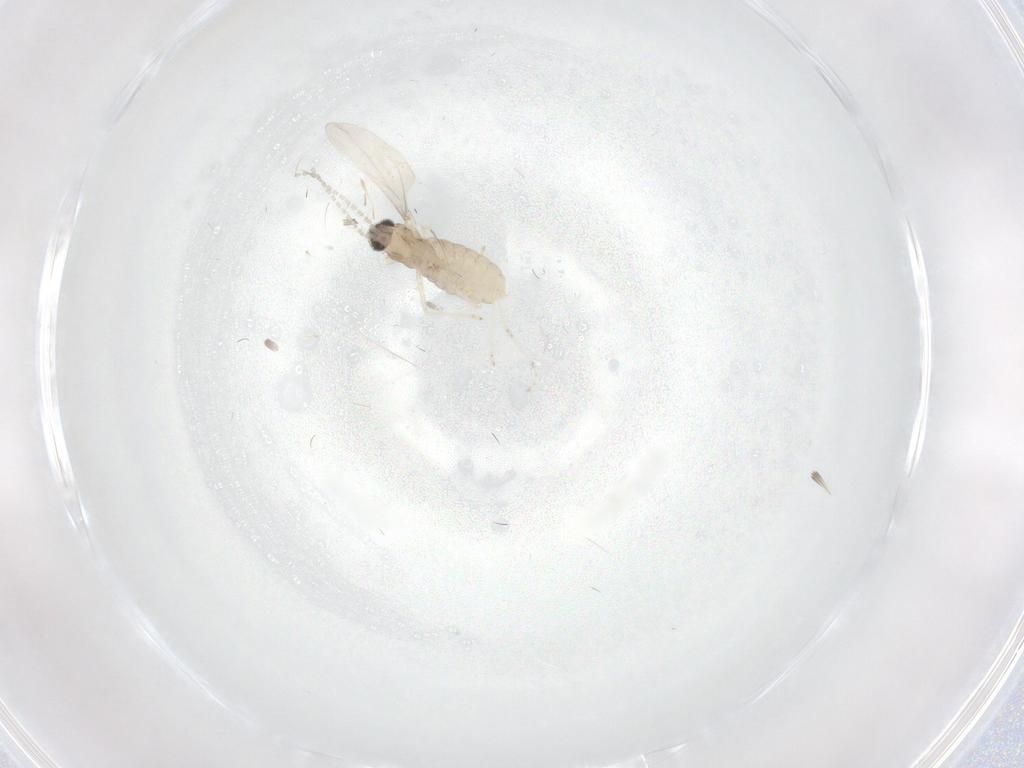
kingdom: Animalia
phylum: Arthropoda
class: Insecta
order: Diptera
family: Cecidomyiidae
